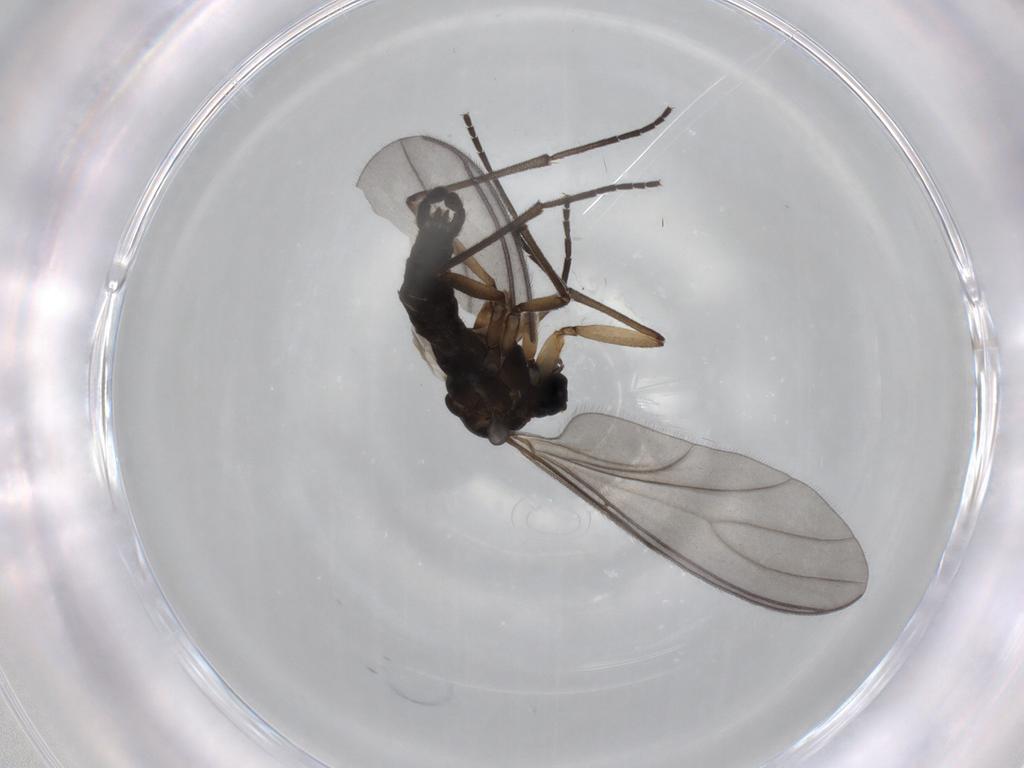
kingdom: Animalia
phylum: Arthropoda
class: Insecta
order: Diptera
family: Sciaridae
